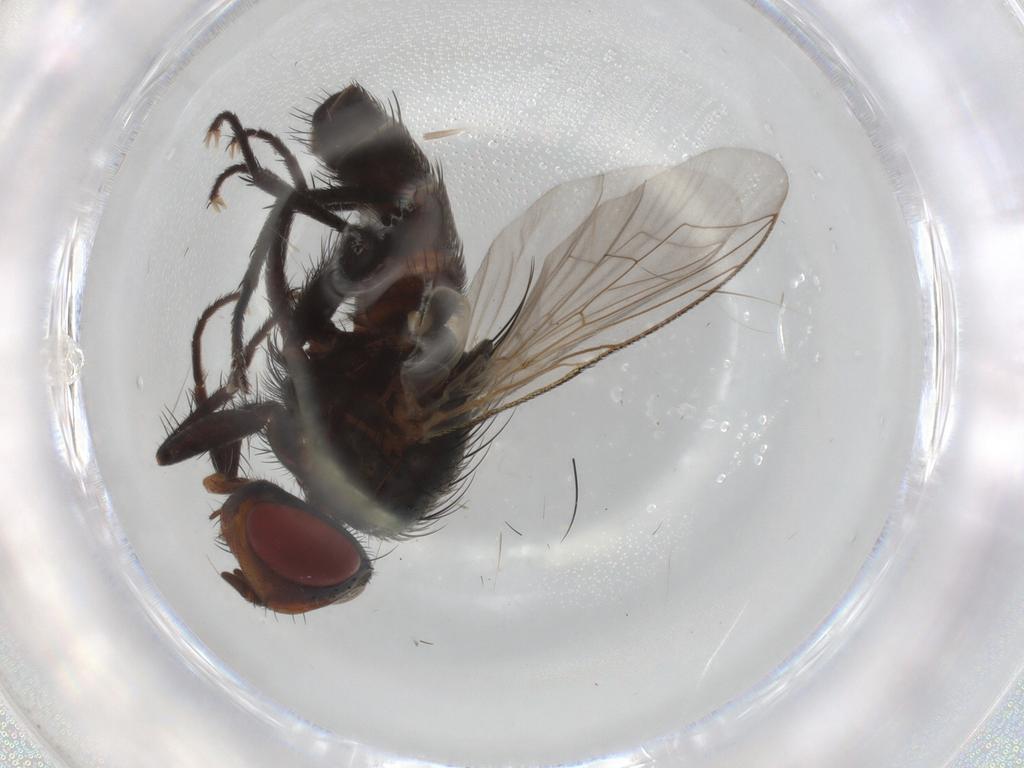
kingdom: Animalia
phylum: Arthropoda
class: Insecta
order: Diptera
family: Sarcophagidae
